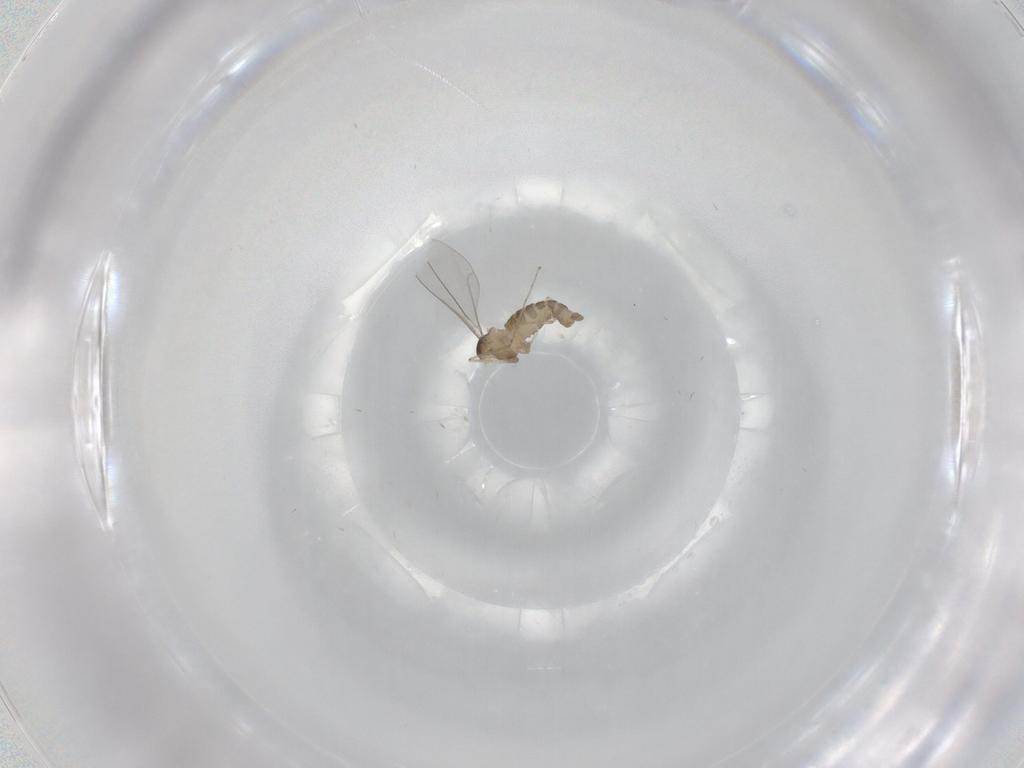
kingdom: Animalia
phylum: Arthropoda
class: Insecta
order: Diptera
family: Cecidomyiidae
